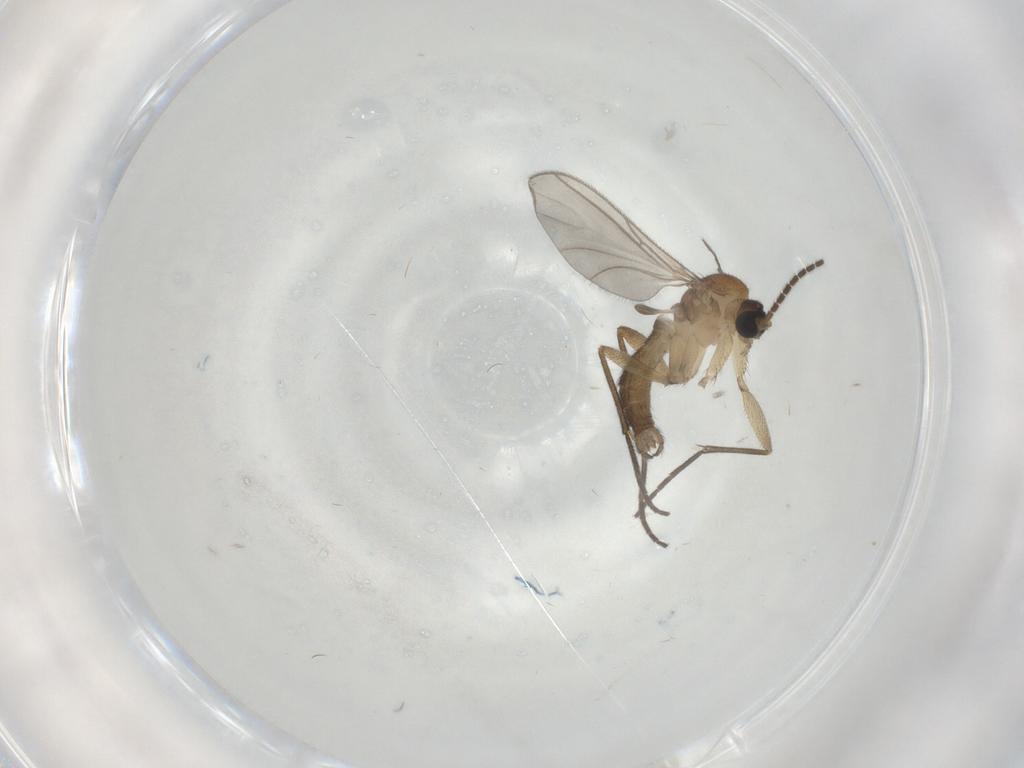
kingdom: Animalia
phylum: Arthropoda
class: Insecta
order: Diptera
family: Sciaridae
